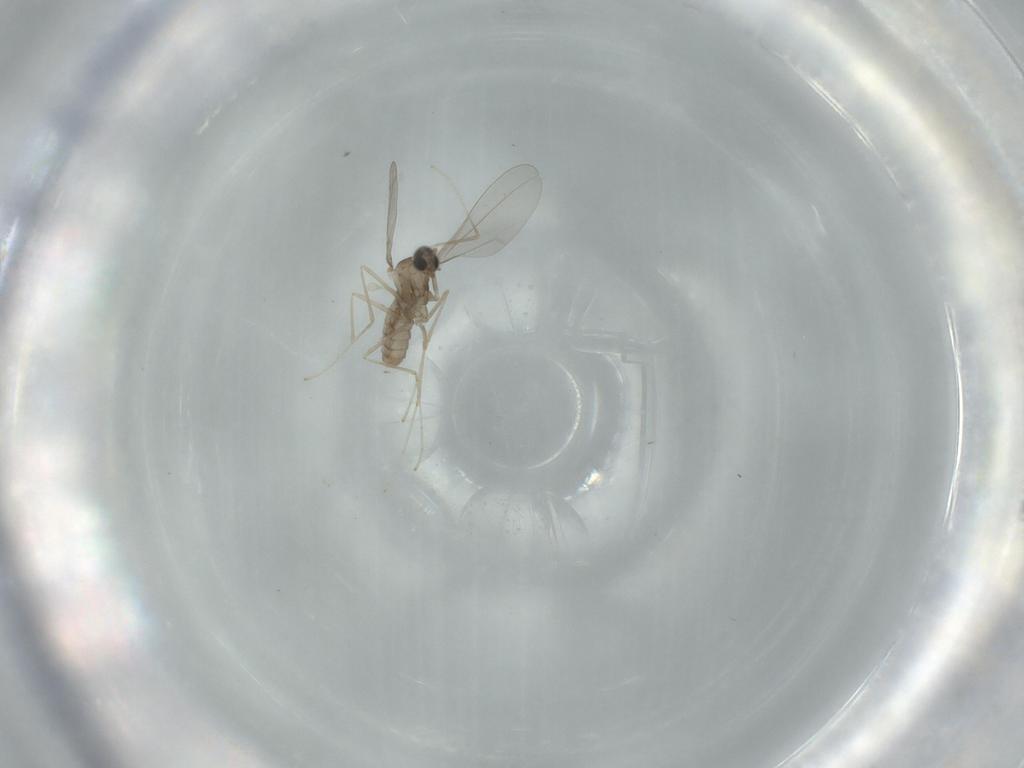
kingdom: Animalia
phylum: Arthropoda
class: Insecta
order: Diptera
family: Cecidomyiidae
